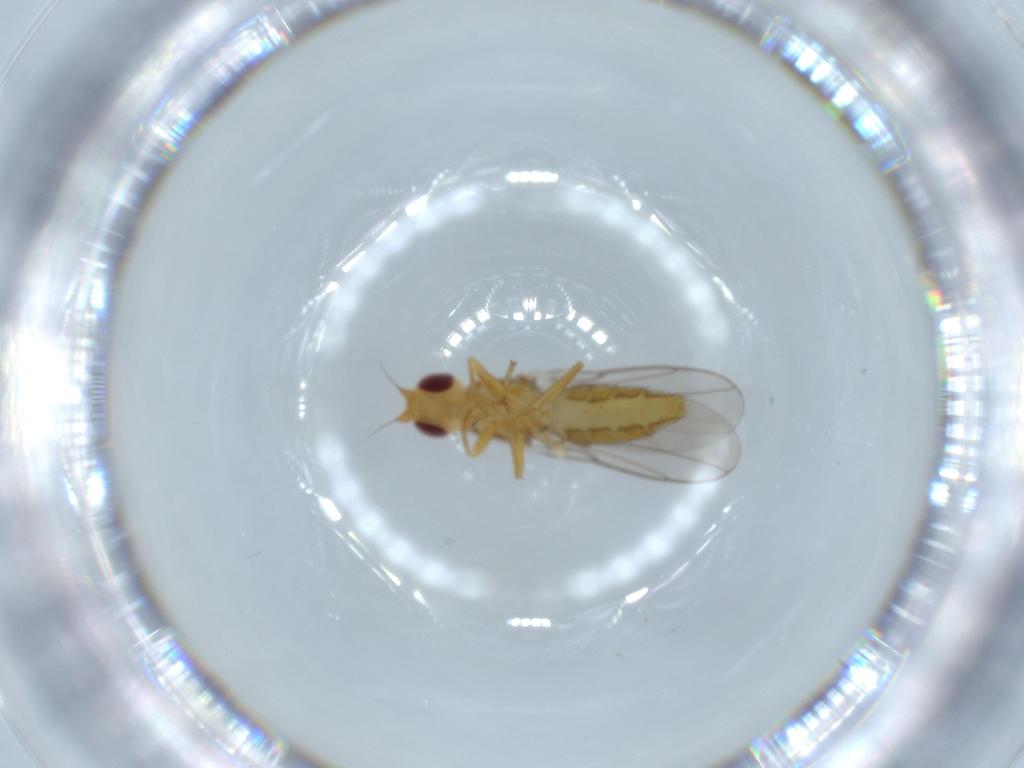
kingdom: Animalia
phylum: Arthropoda
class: Insecta
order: Diptera
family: Chloropidae
